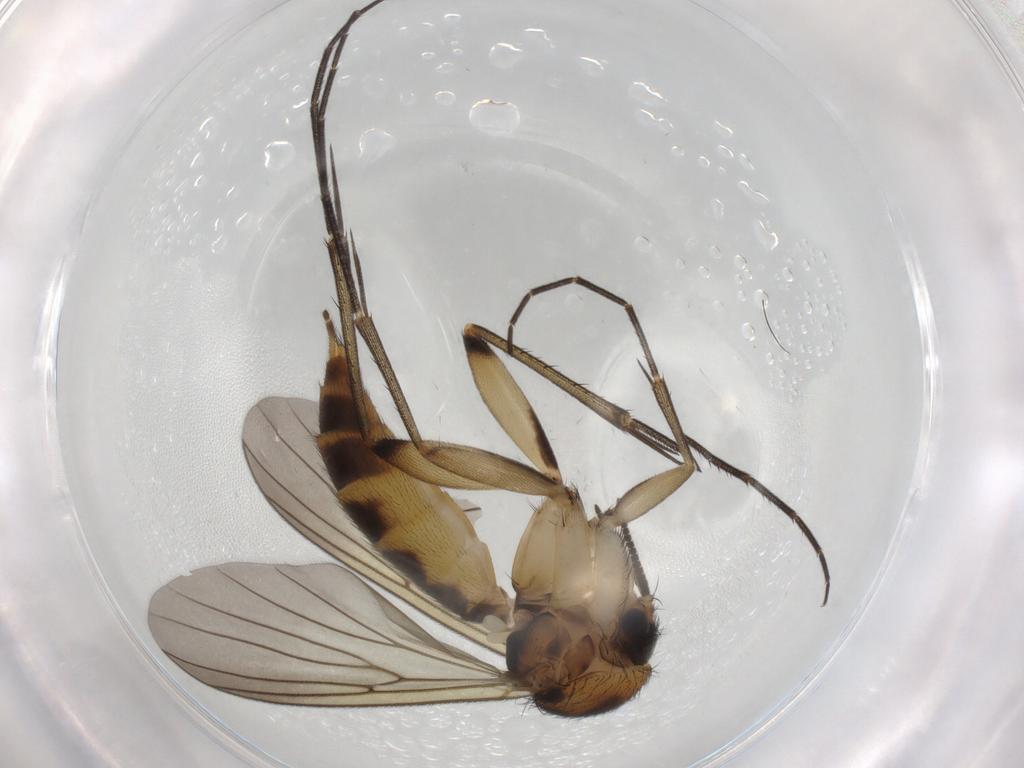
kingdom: Animalia
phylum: Arthropoda
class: Insecta
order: Diptera
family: Mycetophilidae
